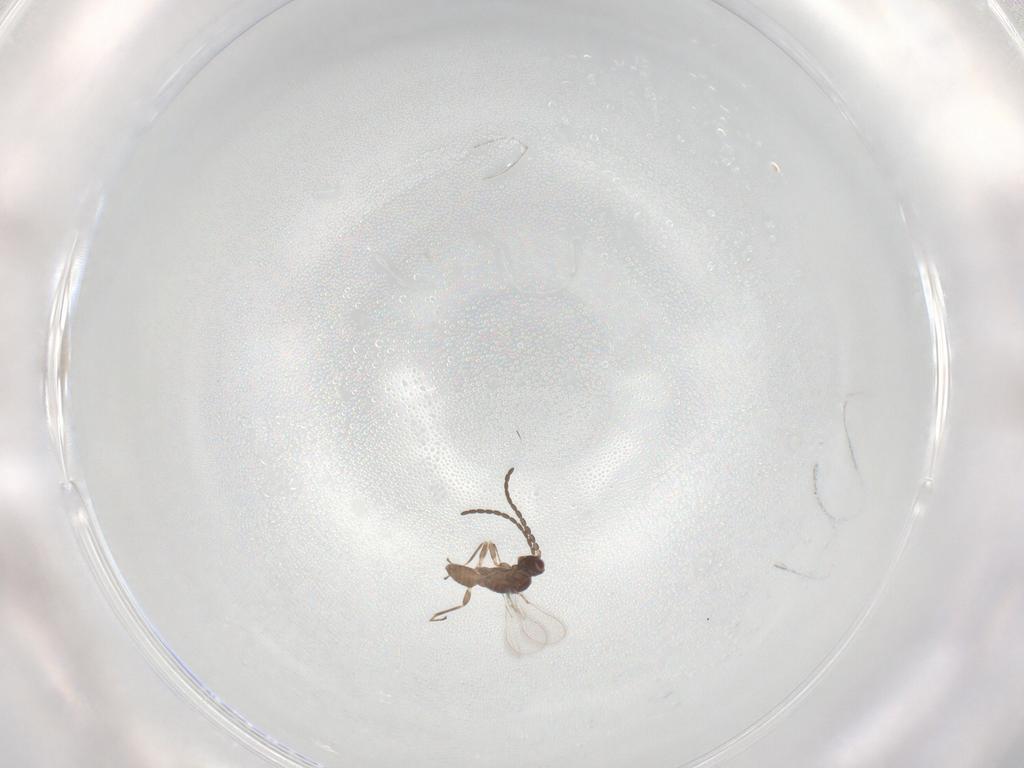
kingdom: Animalia
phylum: Arthropoda
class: Insecta
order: Hymenoptera
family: Mymaridae
